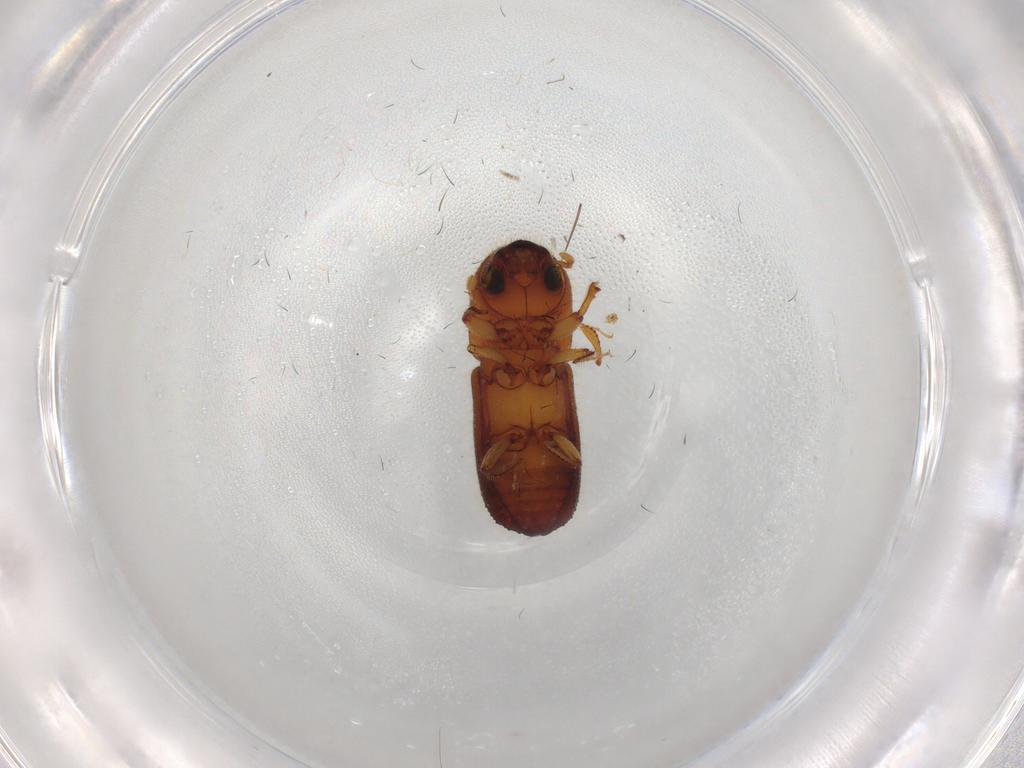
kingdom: Animalia
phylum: Arthropoda
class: Insecta
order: Coleoptera
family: Curculionidae
